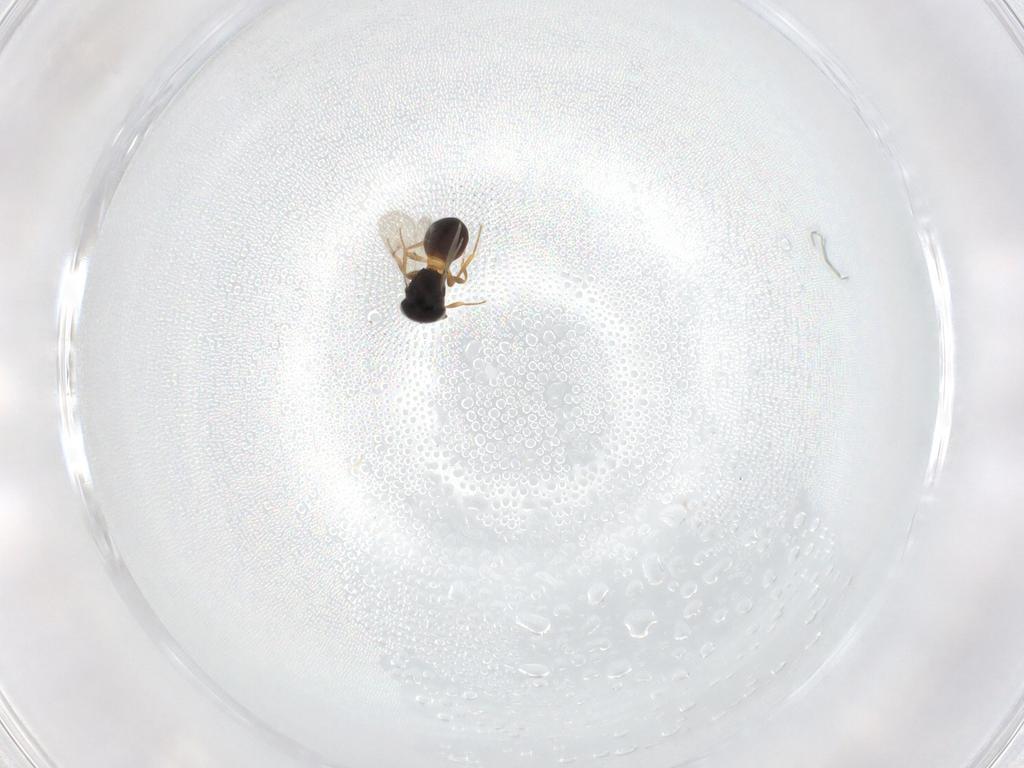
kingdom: Animalia
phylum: Arthropoda
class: Insecta
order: Hymenoptera
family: Scelionidae
